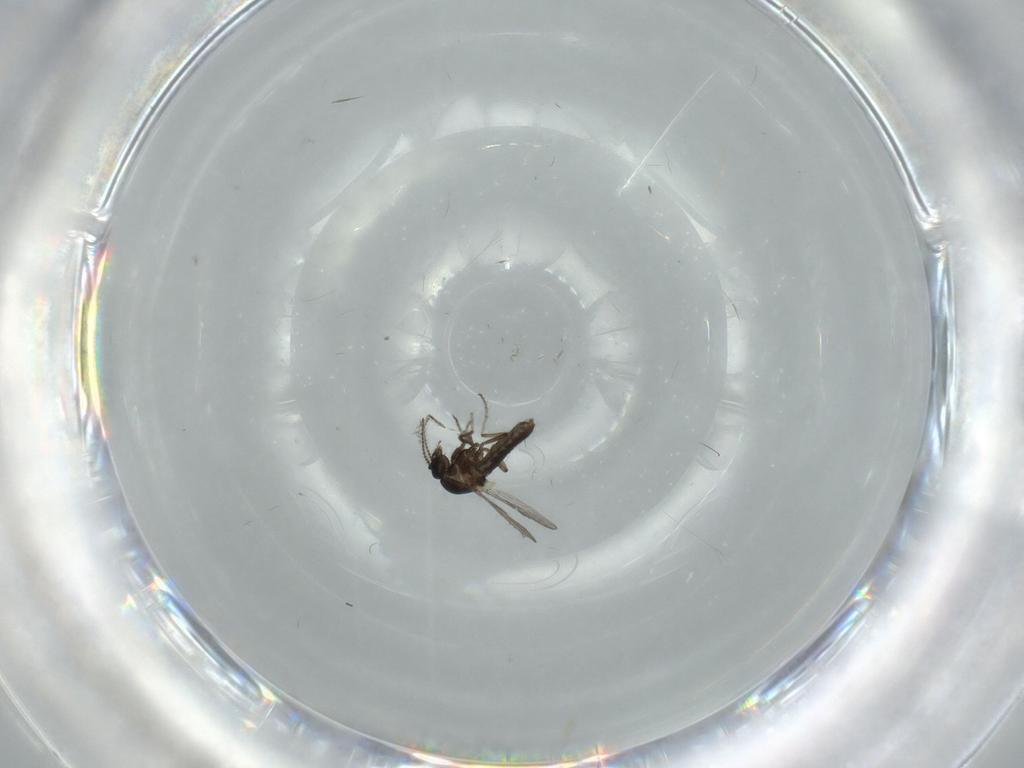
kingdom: Animalia
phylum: Arthropoda
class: Insecta
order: Diptera
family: Ceratopogonidae
